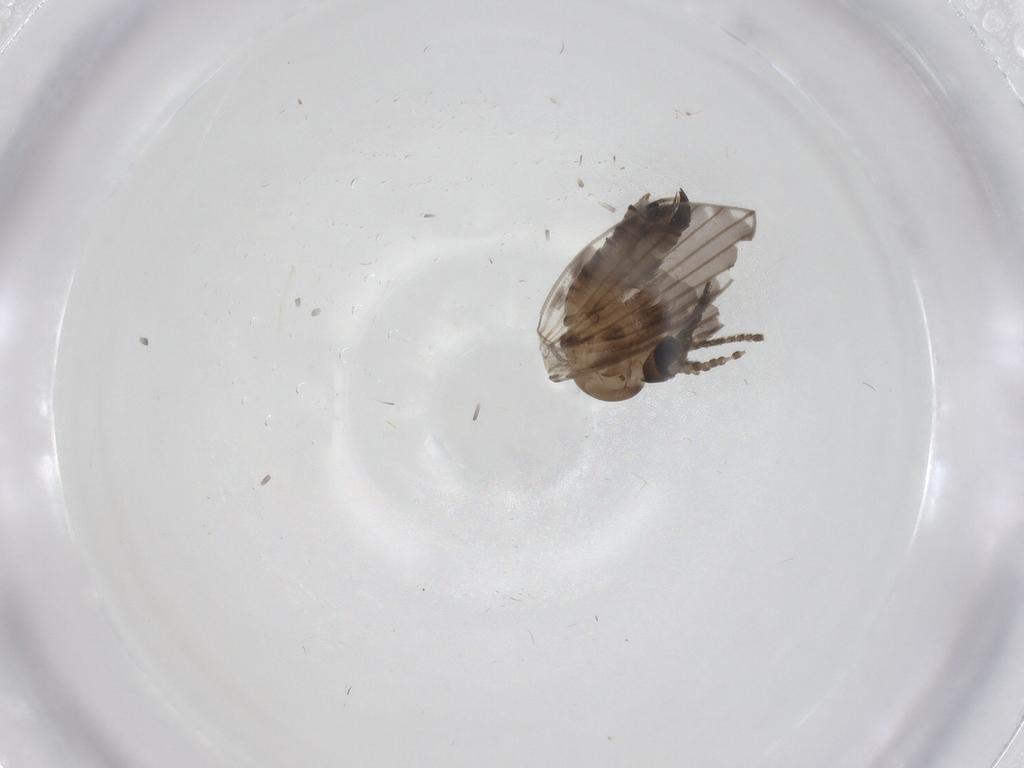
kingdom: Animalia
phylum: Arthropoda
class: Insecta
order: Diptera
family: Psychodidae
